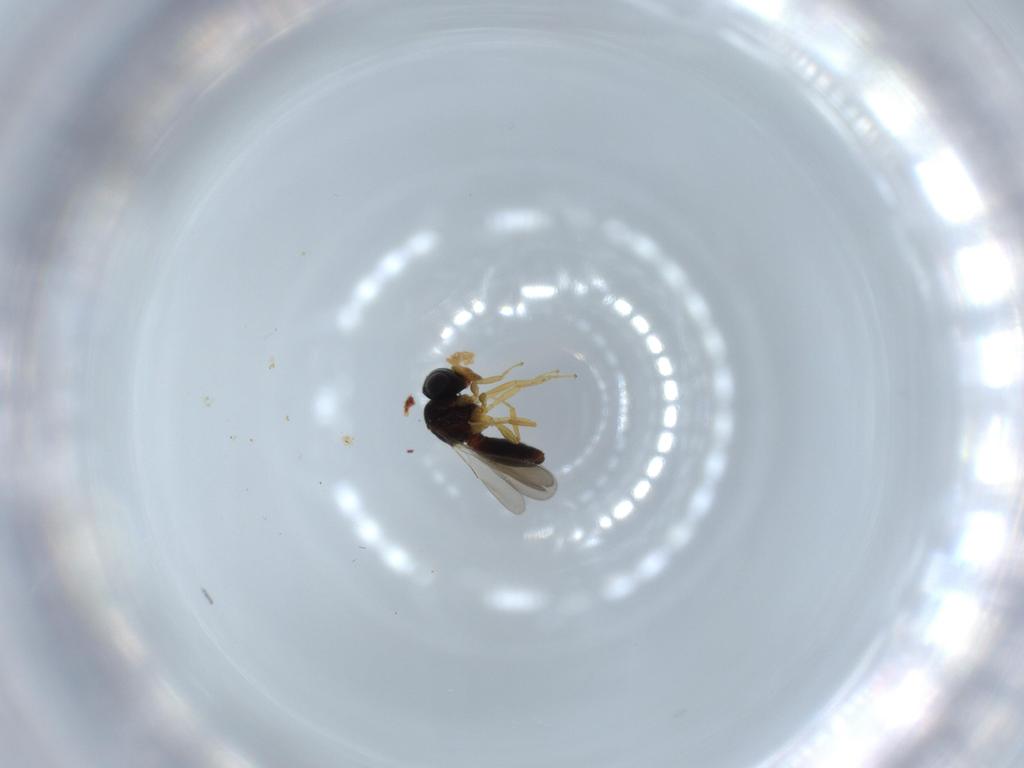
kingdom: Animalia
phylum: Arthropoda
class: Insecta
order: Hymenoptera
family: Scelionidae
